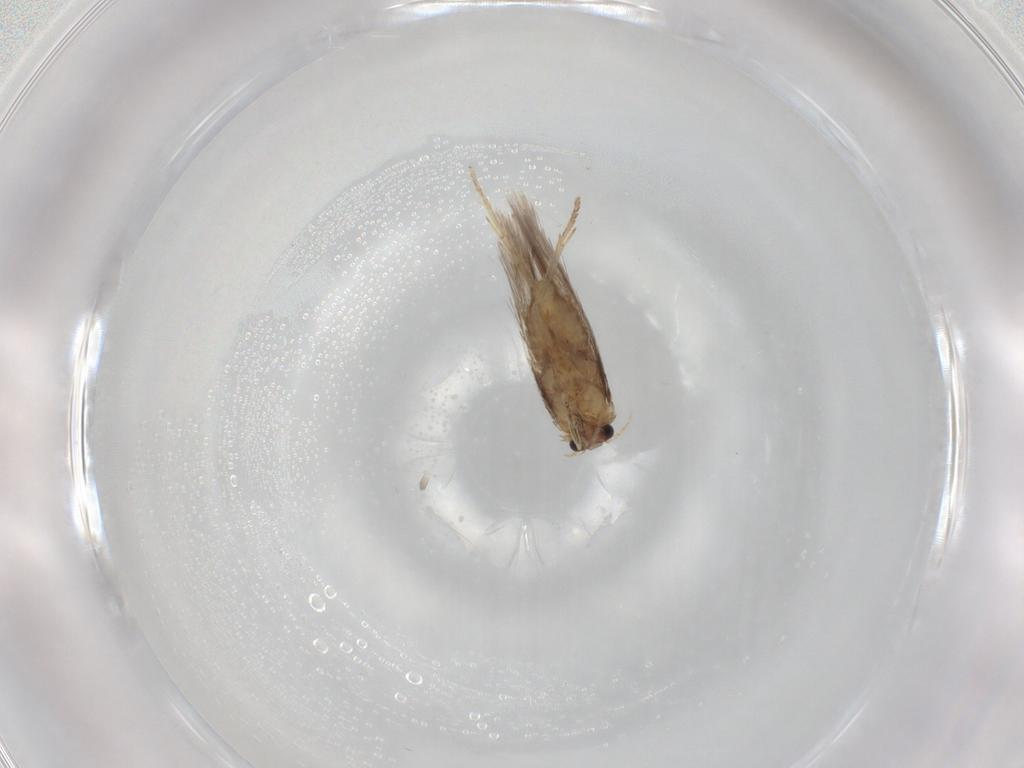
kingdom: Animalia
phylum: Arthropoda
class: Insecta
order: Lepidoptera
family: Nepticulidae
